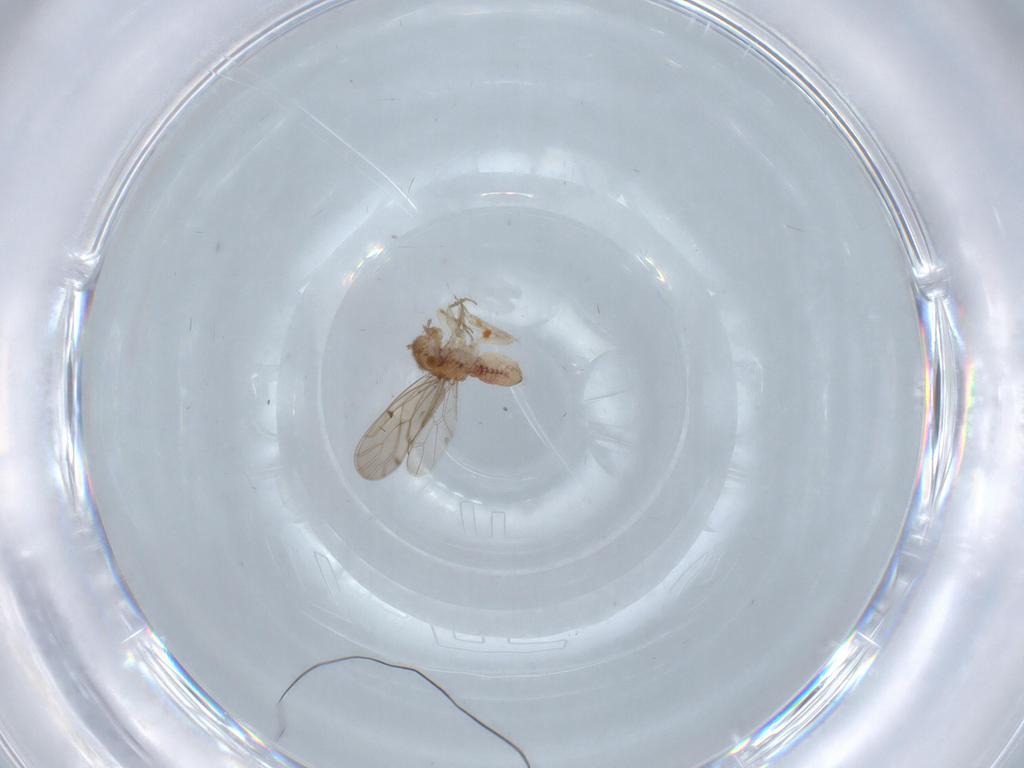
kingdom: Animalia
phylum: Arthropoda
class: Insecta
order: Psocodea
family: Ectopsocidae
